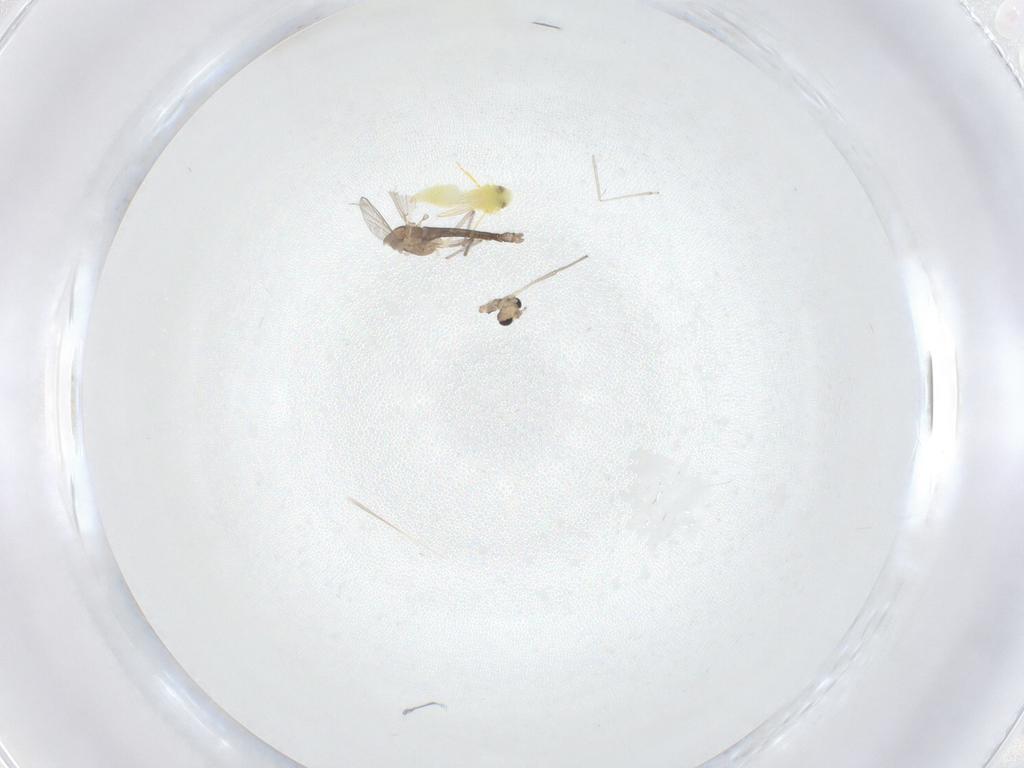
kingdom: Animalia
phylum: Arthropoda
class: Insecta
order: Diptera
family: Chironomidae
